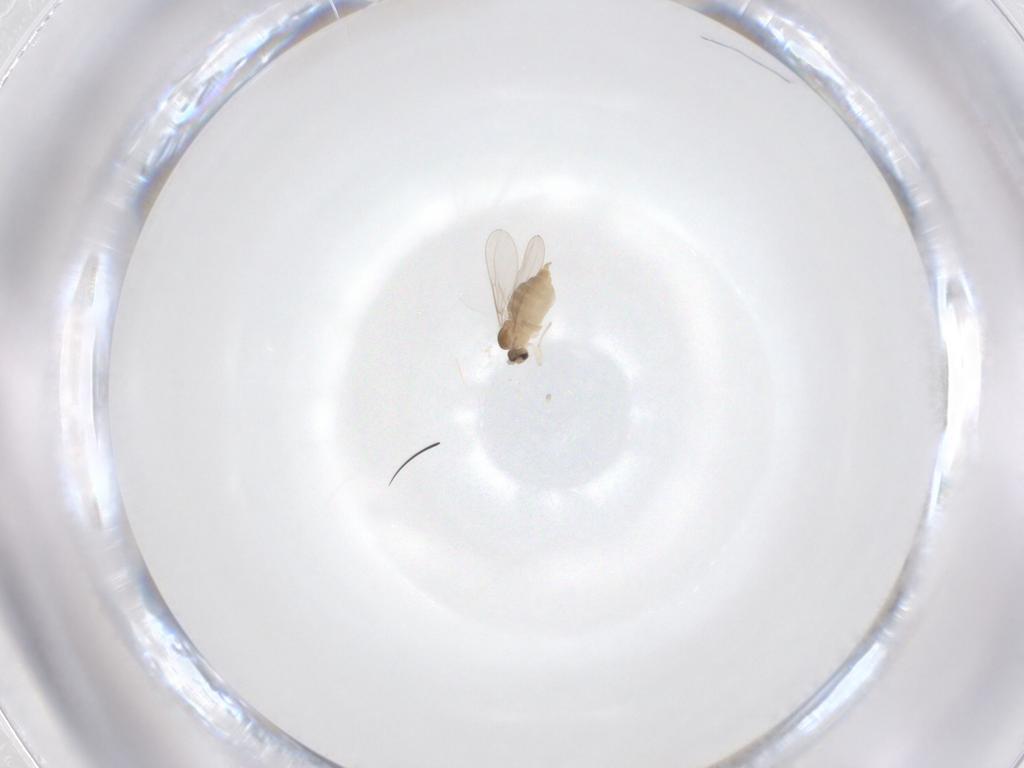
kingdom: Animalia
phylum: Arthropoda
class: Insecta
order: Diptera
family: Cecidomyiidae
